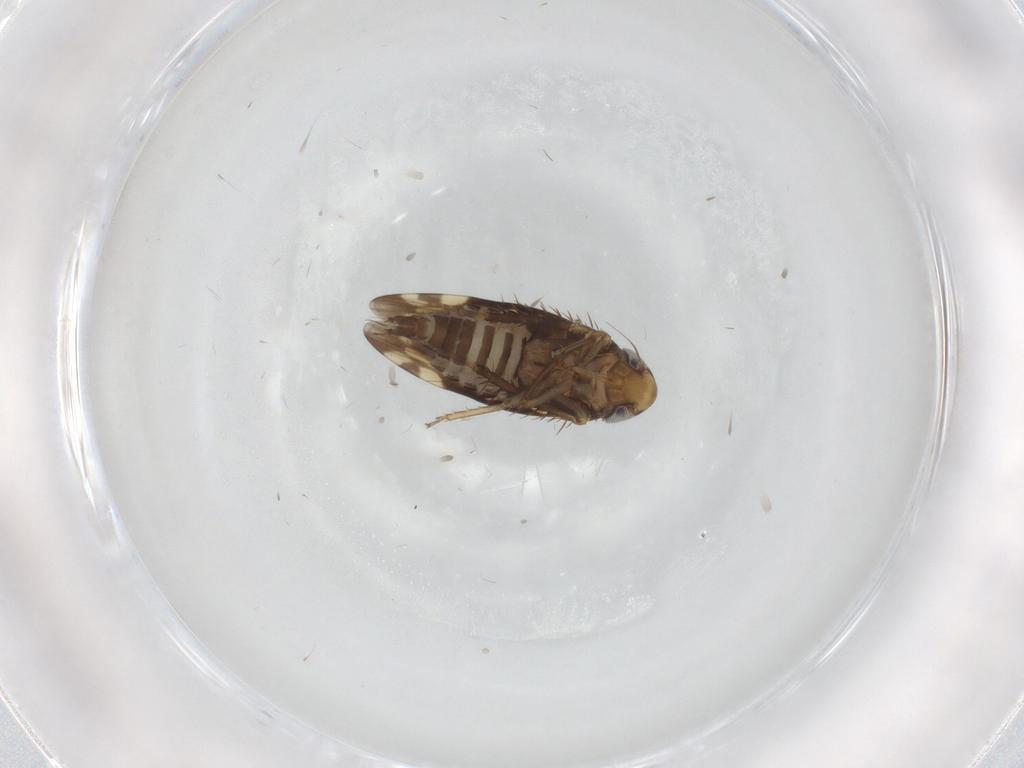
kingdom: Animalia
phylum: Arthropoda
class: Insecta
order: Hemiptera
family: Cicadellidae
